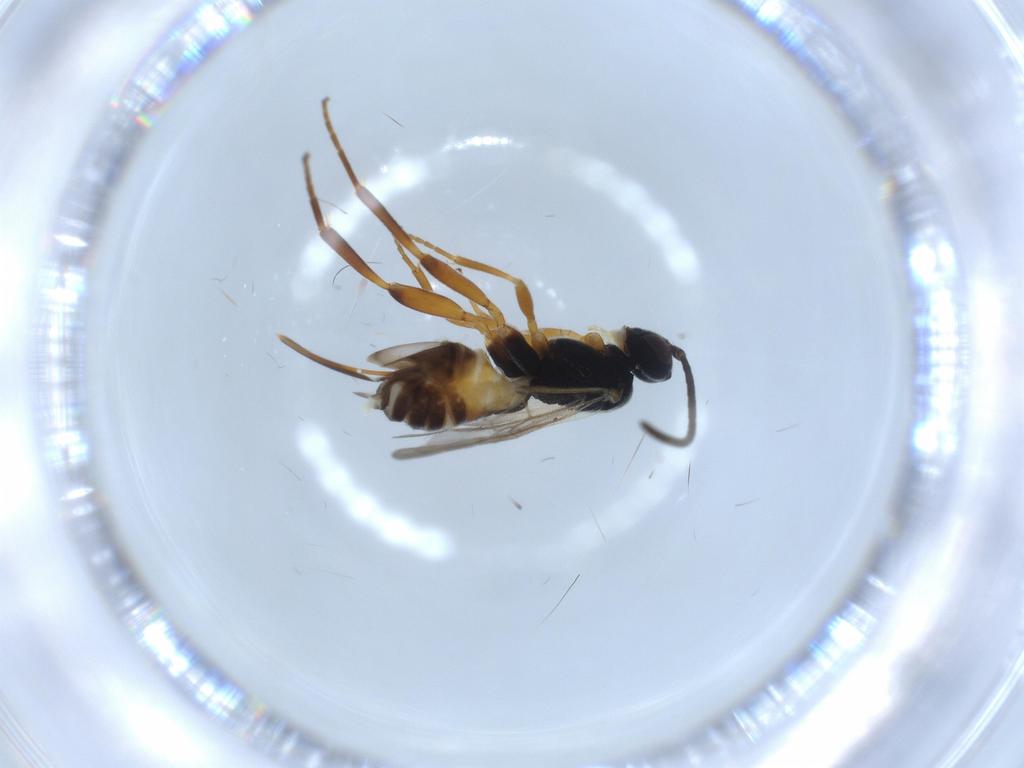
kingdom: Animalia
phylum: Arthropoda
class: Insecta
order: Hymenoptera
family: Braconidae
